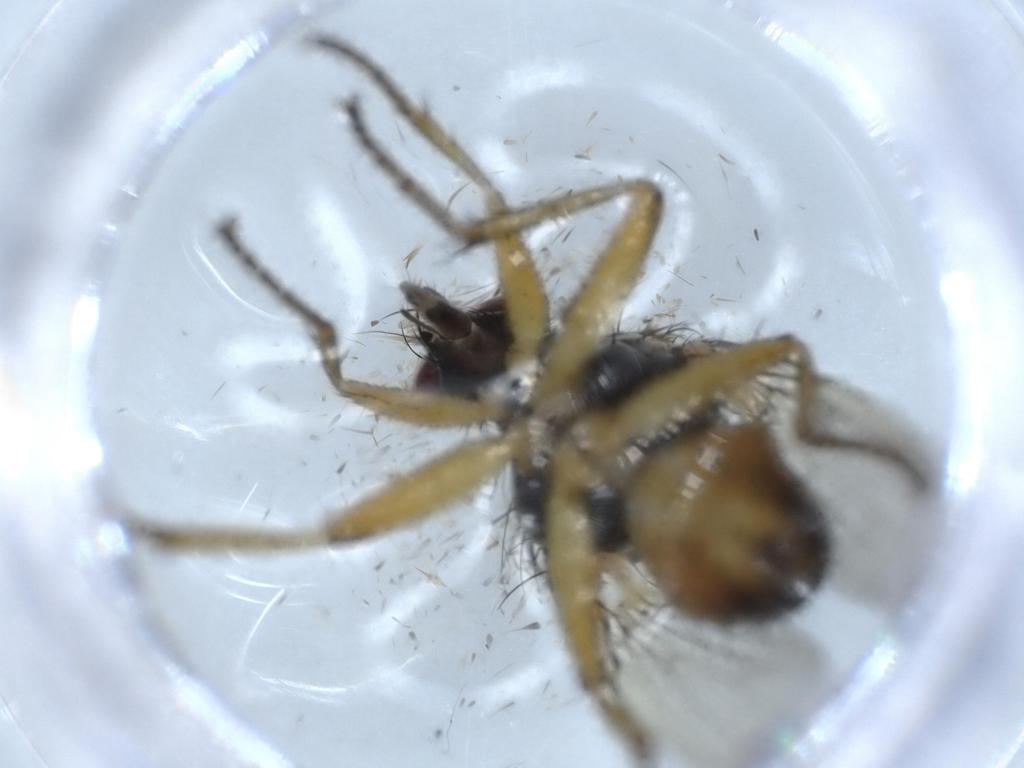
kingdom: Animalia
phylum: Arthropoda
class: Insecta
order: Diptera
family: Muscidae
